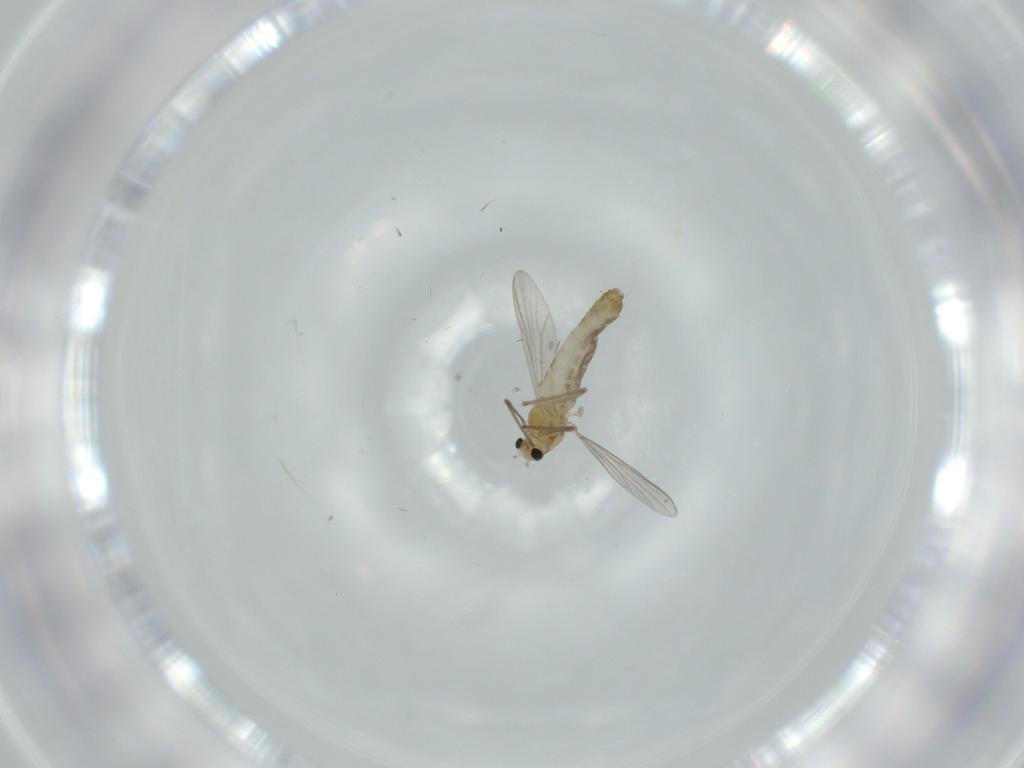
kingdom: Animalia
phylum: Arthropoda
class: Insecta
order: Diptera
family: Chironomidae
